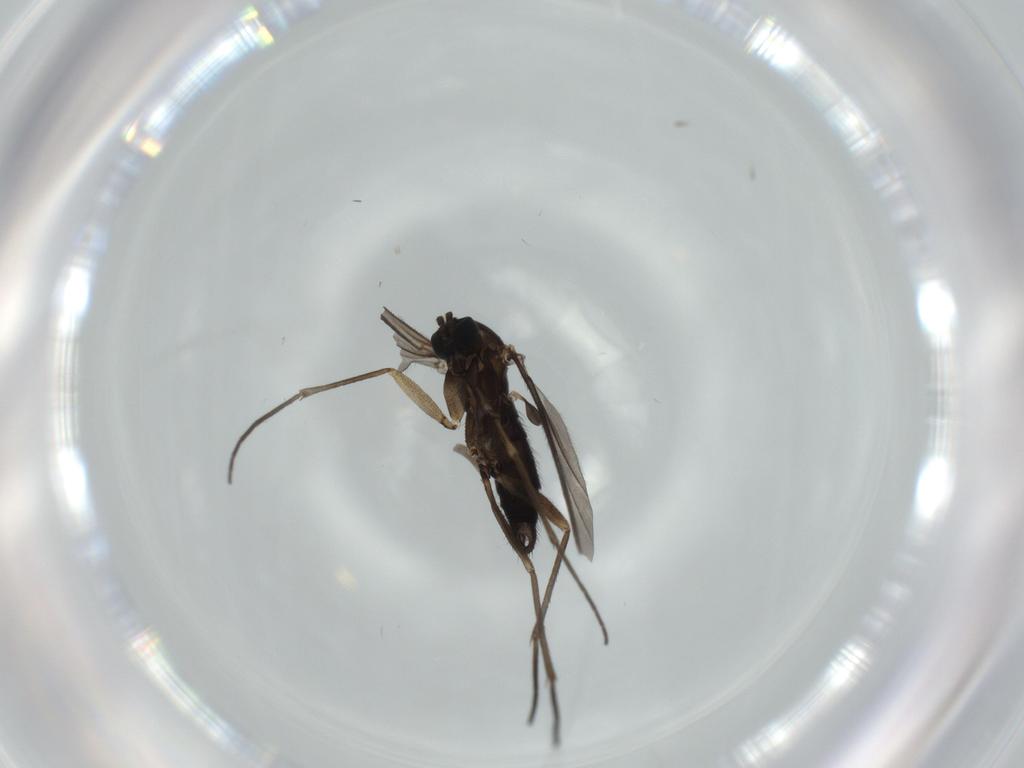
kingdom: Animalia
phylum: Arthropoda
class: Insecta
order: Diptera
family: Sciaridae
